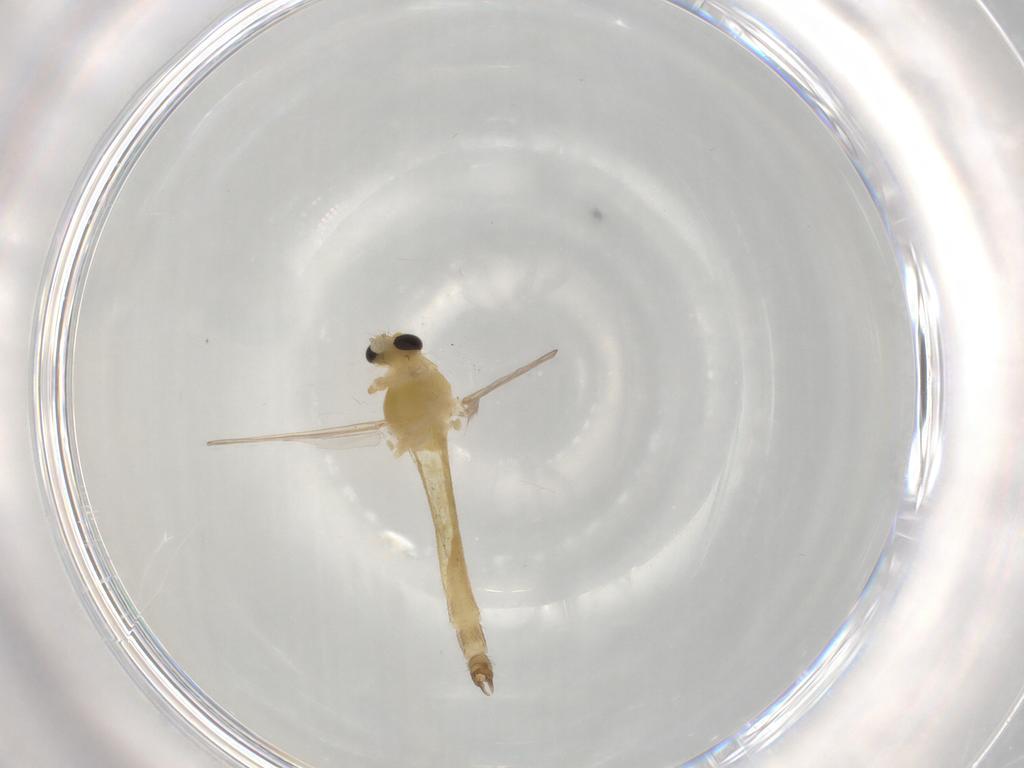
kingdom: Animalia
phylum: Arthropoda
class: Insecta
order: Diptera
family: Chironomidae
